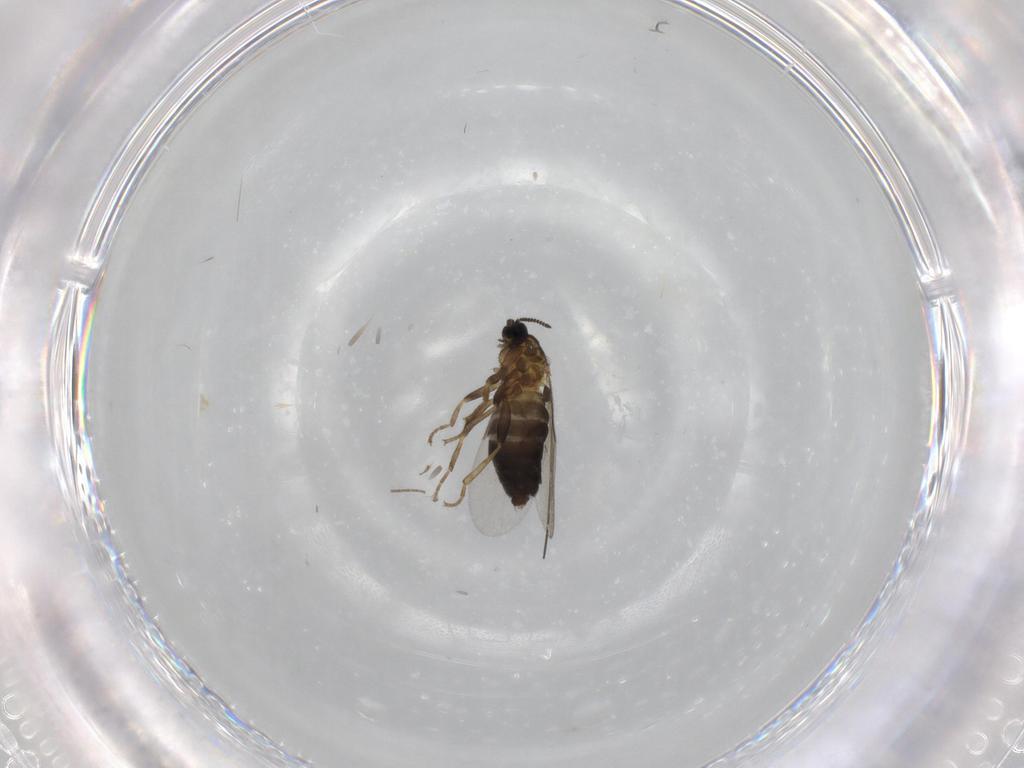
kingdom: Animalia
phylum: Arthropoda
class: Insecta
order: Diptera
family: Scatopsidae
